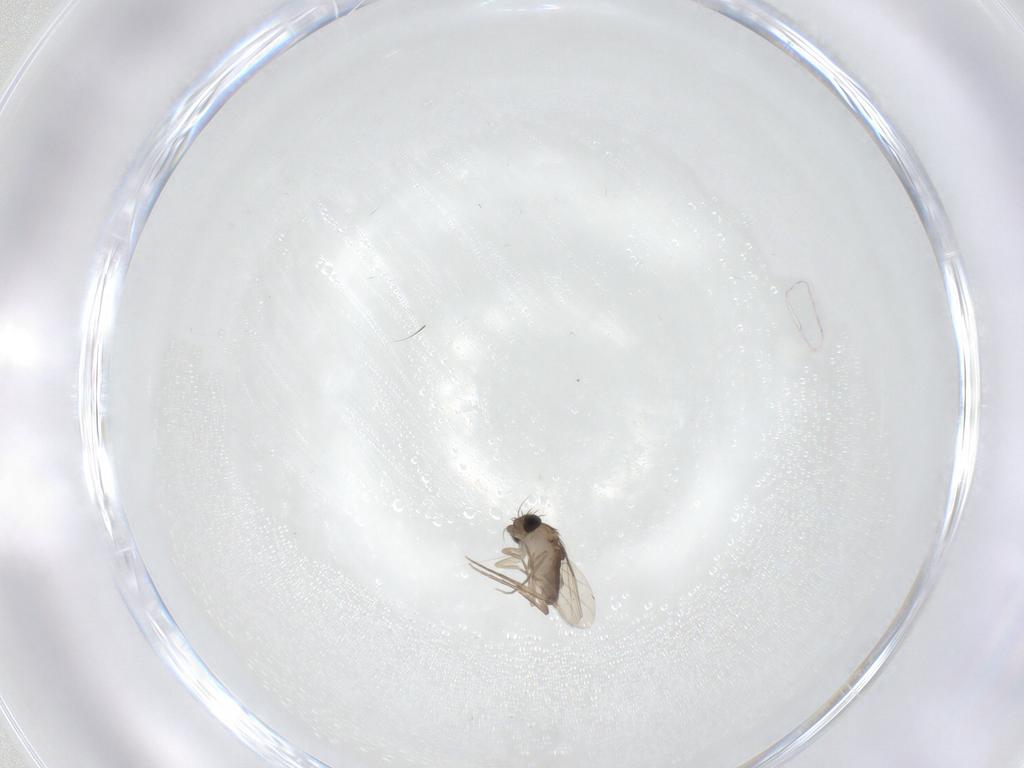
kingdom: Animalia
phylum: Arthropoda
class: Insecta
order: Diptera
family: Phoridae
